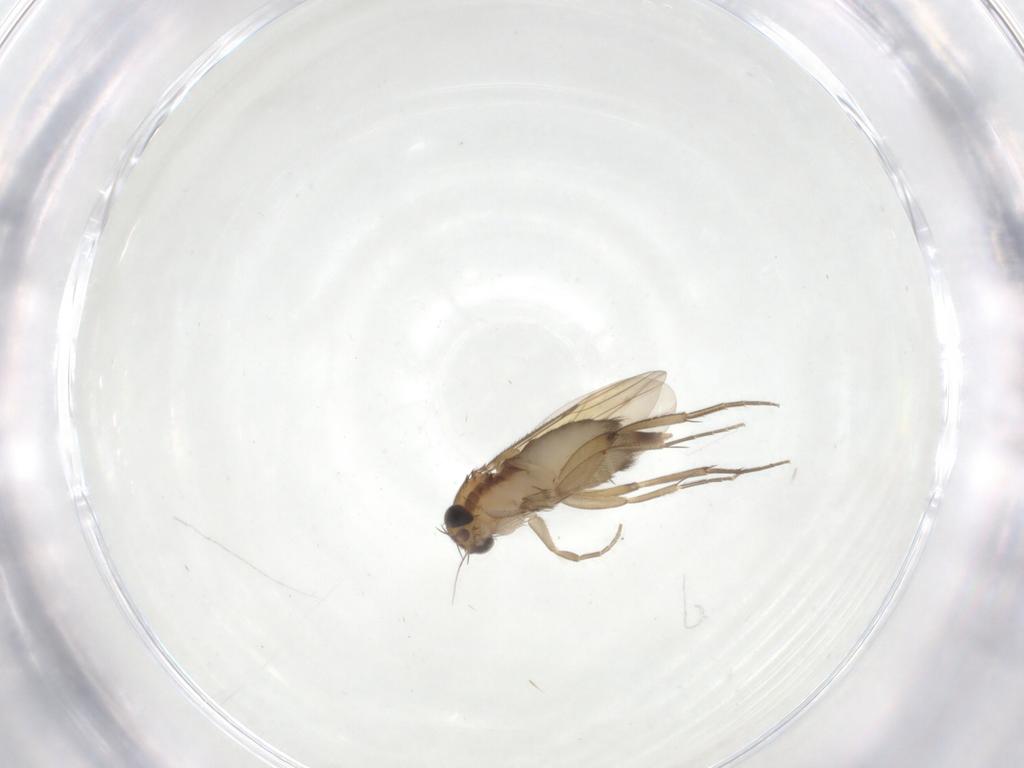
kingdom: Animalia
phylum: Arthropoda
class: Insecta
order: Diptera
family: Phoridae
